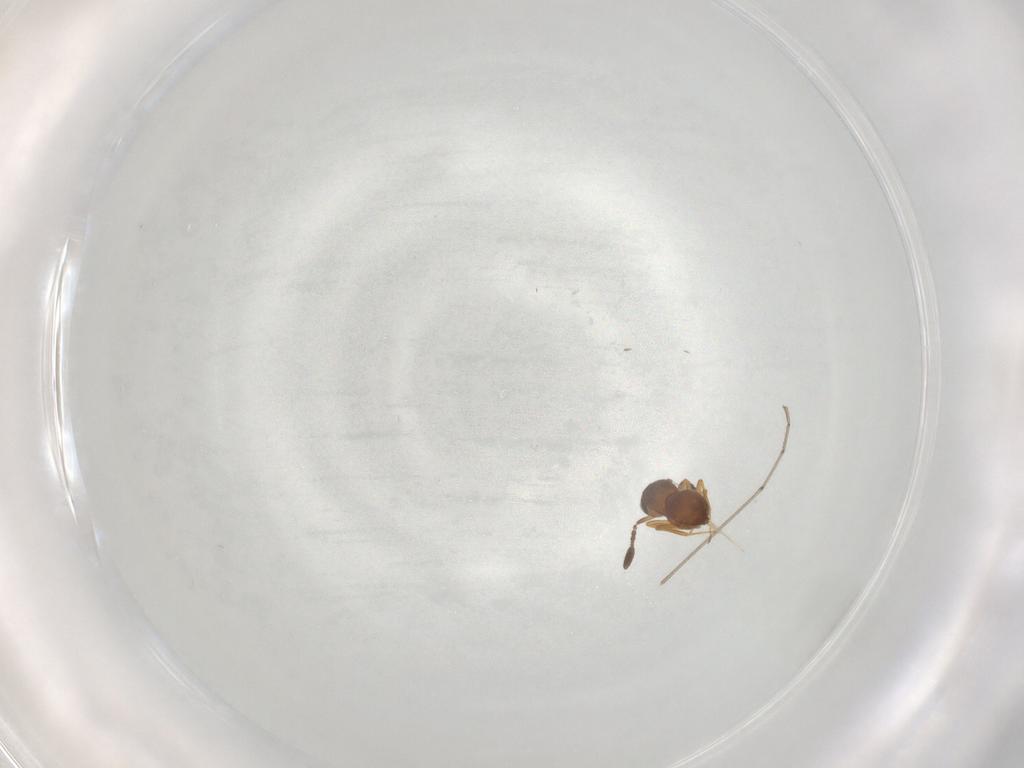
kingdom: Animalia
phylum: Arthropoda
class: Insecta
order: Hymenoptera
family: Scelionidae
